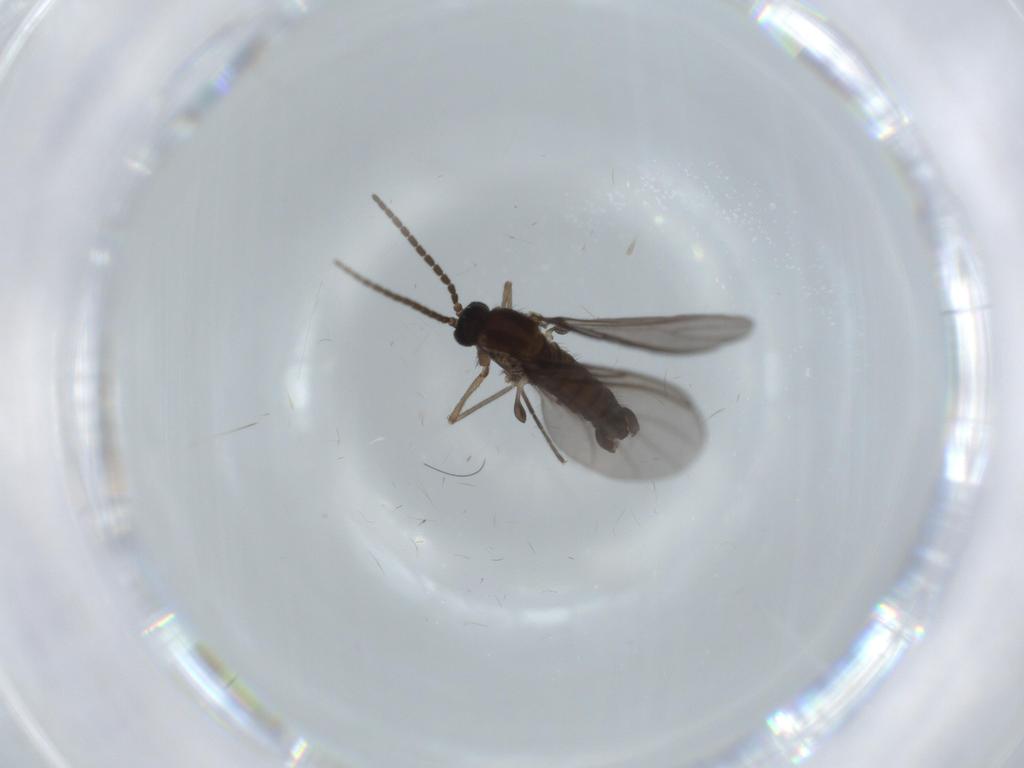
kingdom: Animalia
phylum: Arthropoda
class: Insecta
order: Diptera
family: Sciaridae
